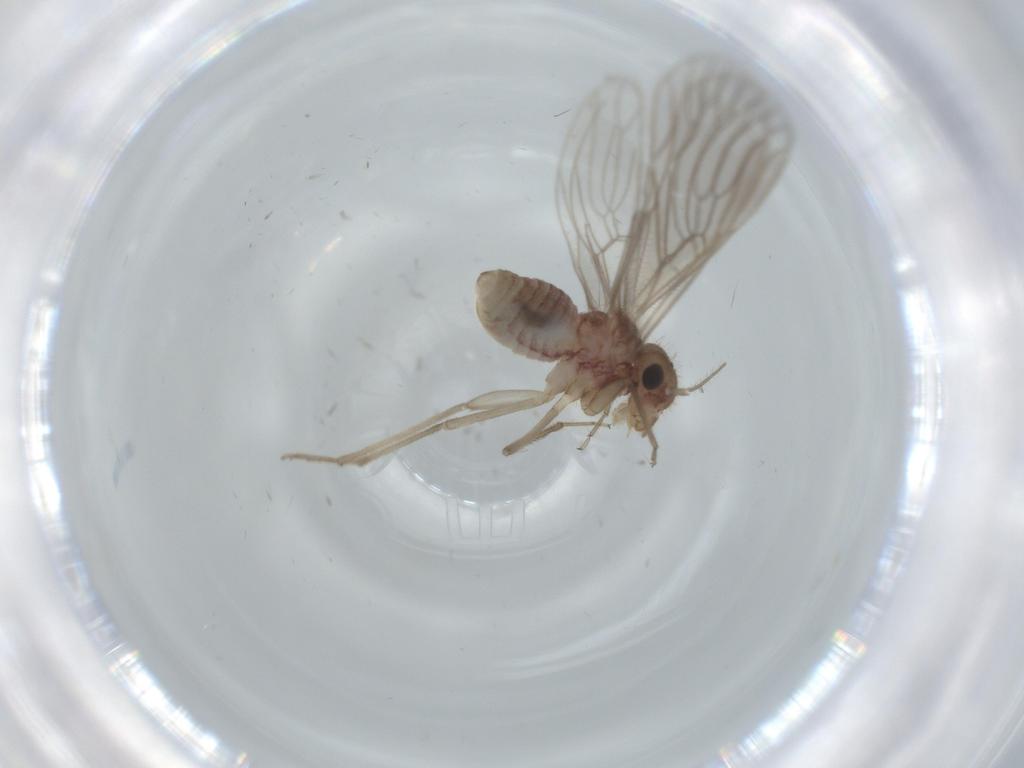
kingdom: Animalia
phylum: Arthropoda
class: Insecta
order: Psocodea
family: Cladiopsocidae
